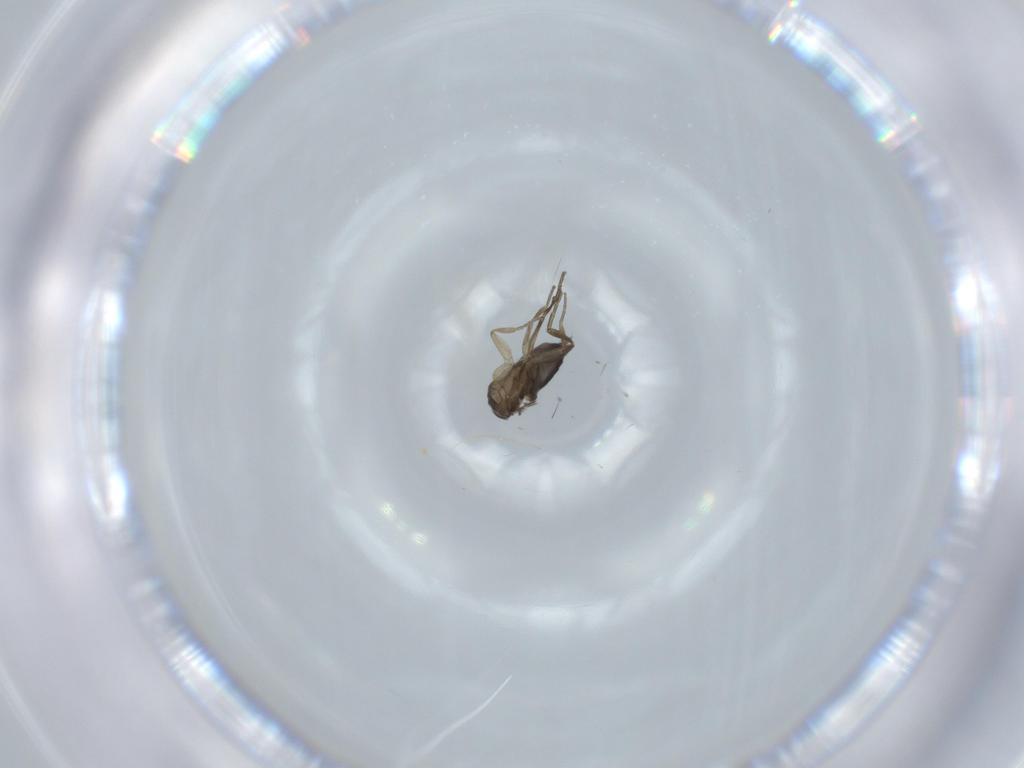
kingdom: Animalia
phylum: Arthropoda
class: Insecta
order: Diptera
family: Phoridae
